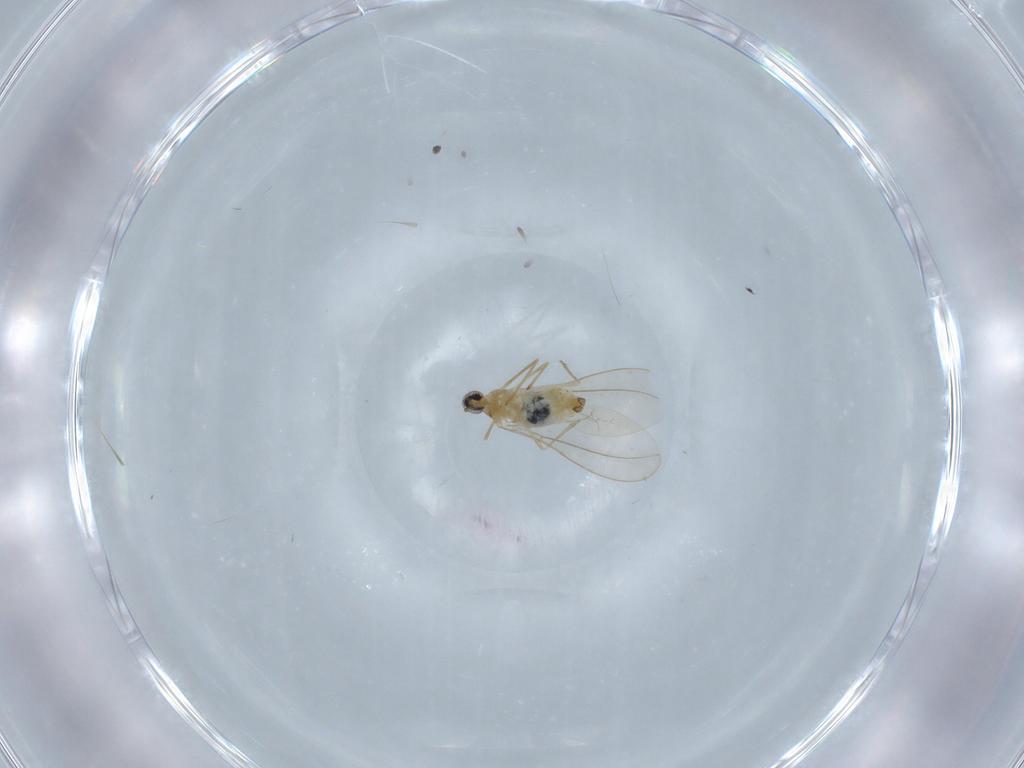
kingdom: Animalia
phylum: Arthropoda
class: Insecta
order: Diptera
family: Cecidomyiidae
